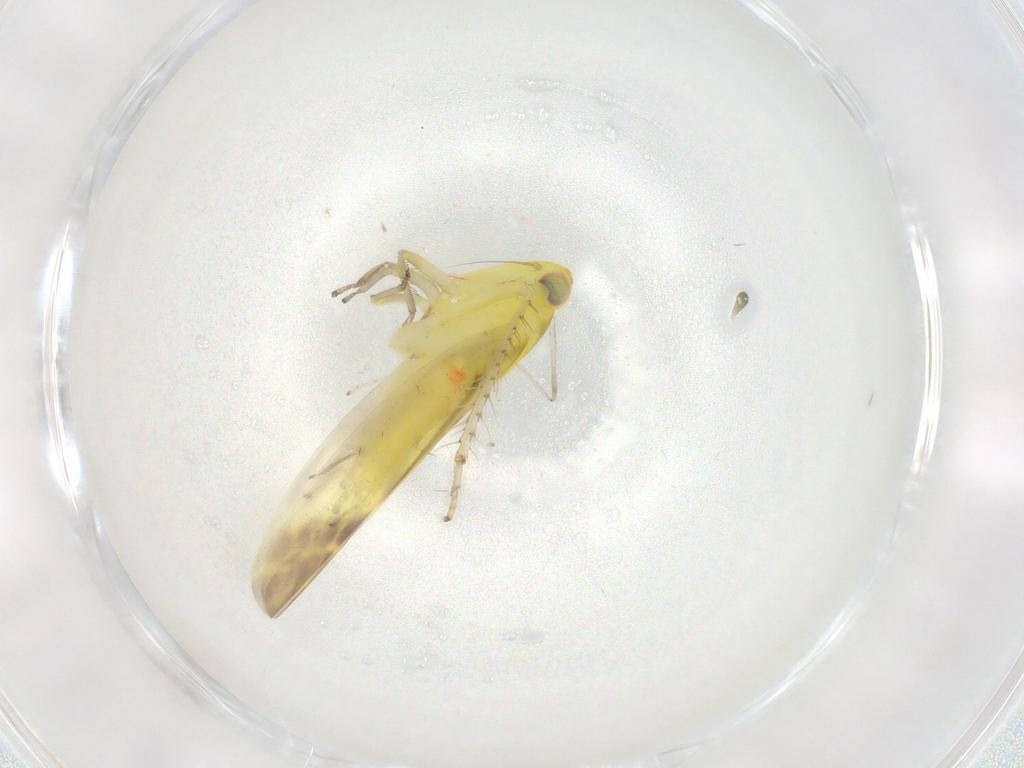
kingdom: Animalia
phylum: Arthropoda
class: Insecta
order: Hemiptera
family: Cicadellidae
